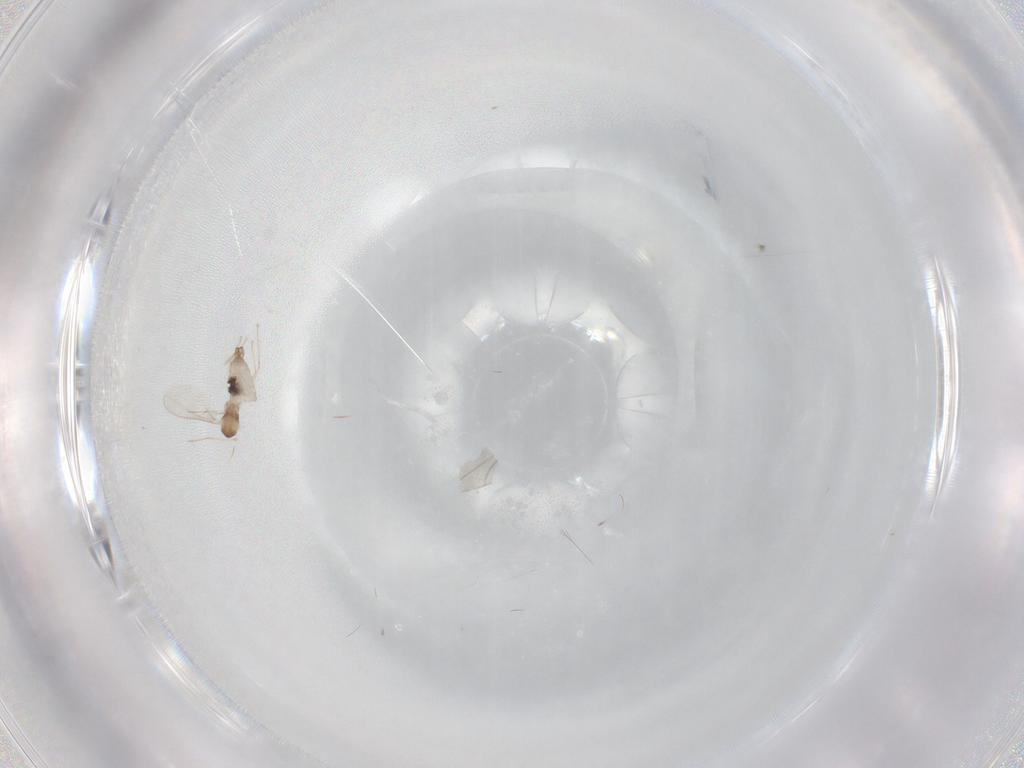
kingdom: Animalia
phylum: Arthropoda
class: Insecta
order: Diptera
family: Cecidomyiidae
